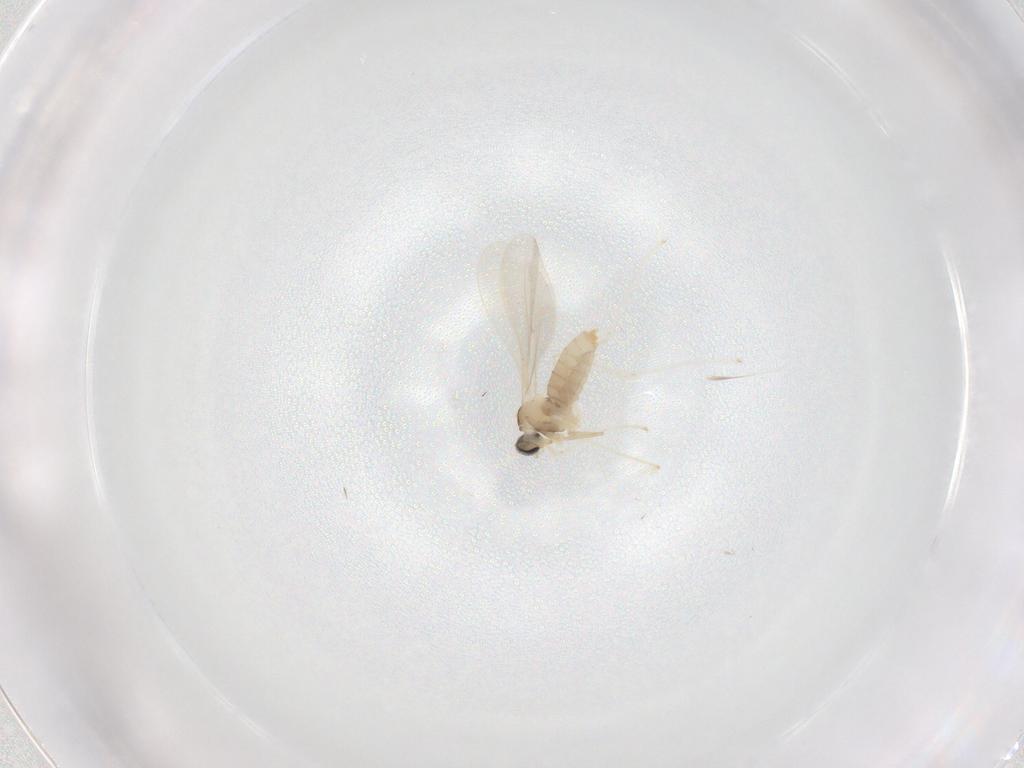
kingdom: Animalia
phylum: Arthropoda
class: Insecta
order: Diptera
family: Cecidomyiidae
